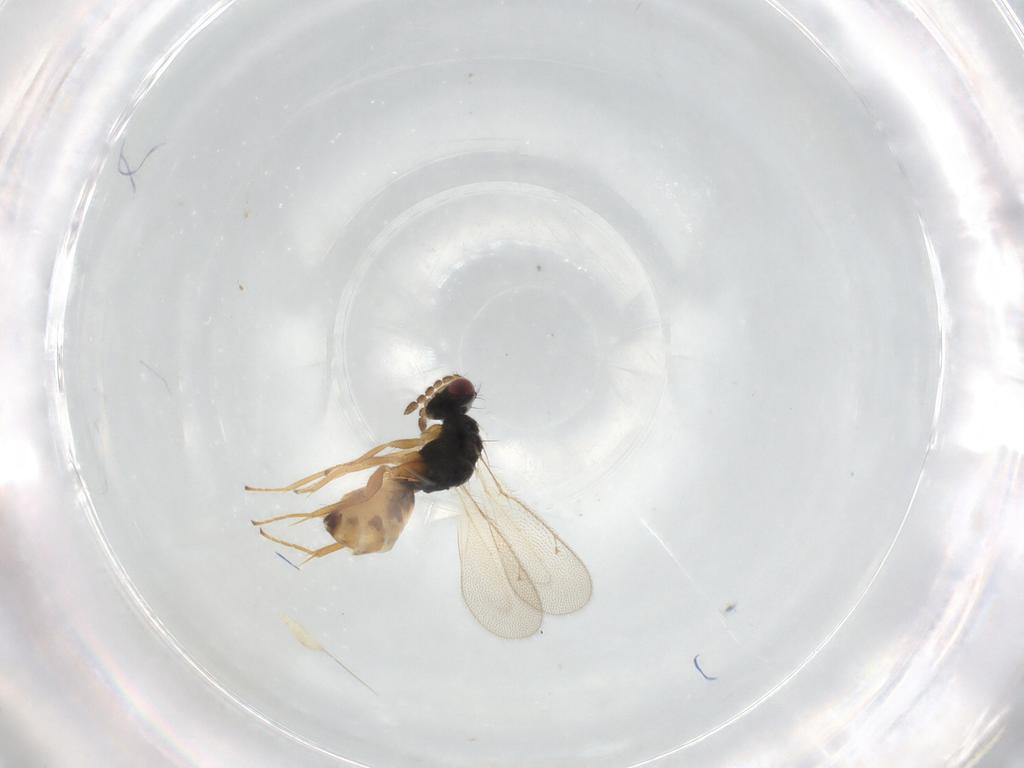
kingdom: Animalia
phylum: Arthropoda
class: Insecta
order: Hymenoptera
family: Eulophidae
